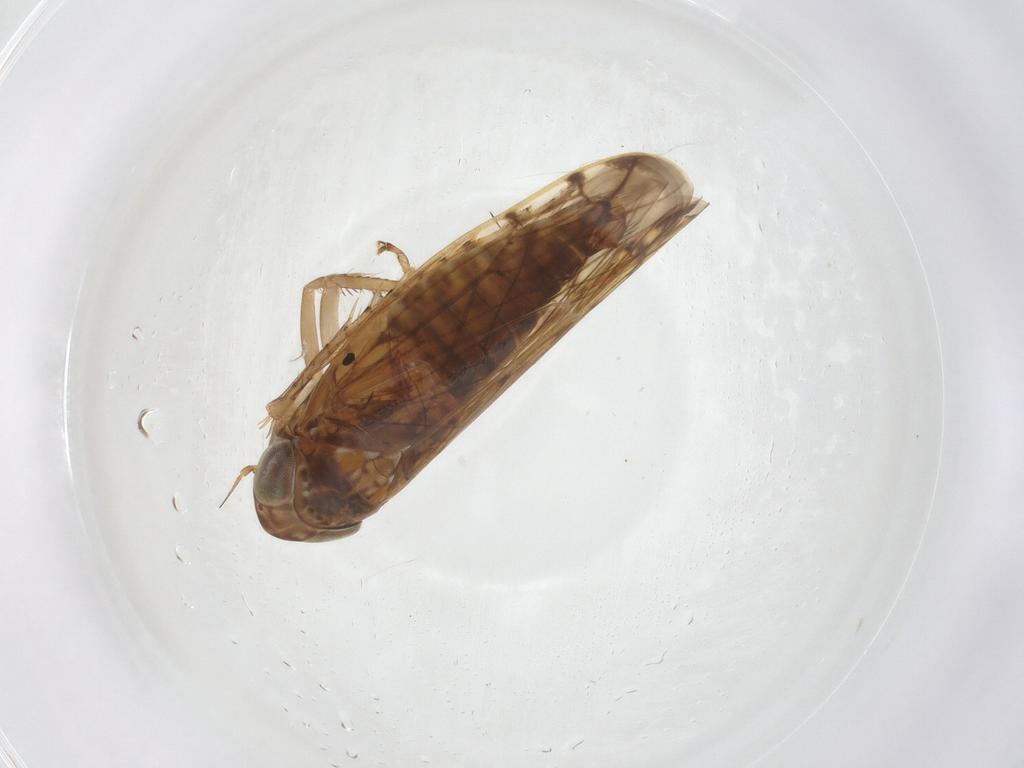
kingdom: Animalia
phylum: Arthropoda
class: Insecta
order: Hemiptera
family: Cicadellidae
